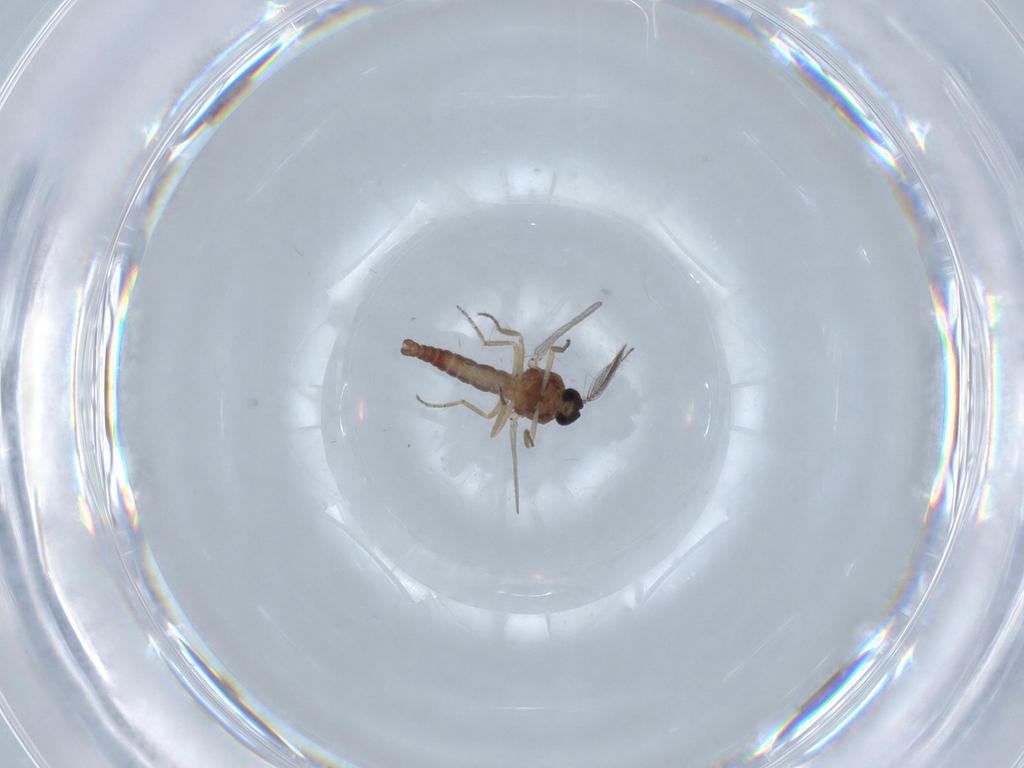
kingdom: Animalia
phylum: Arthropoda
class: Insecta
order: Diptera
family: Ceratopogonidae
